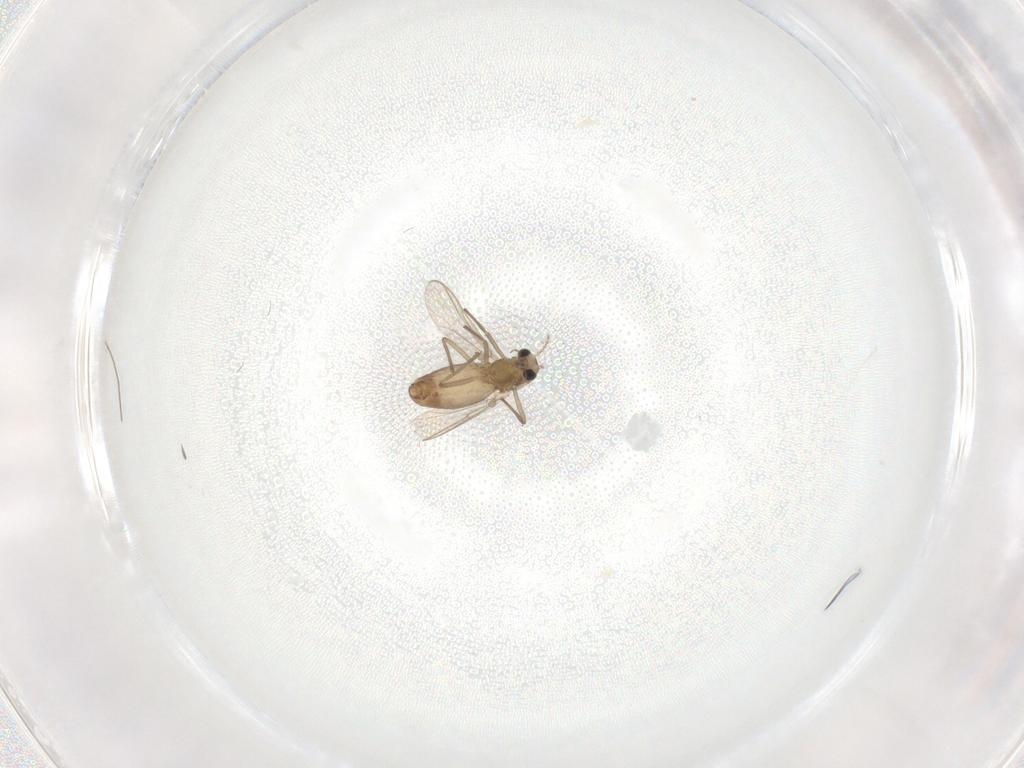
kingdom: Animalia
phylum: Arthropoda
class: Insecta
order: Diptera
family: Chironomidae
